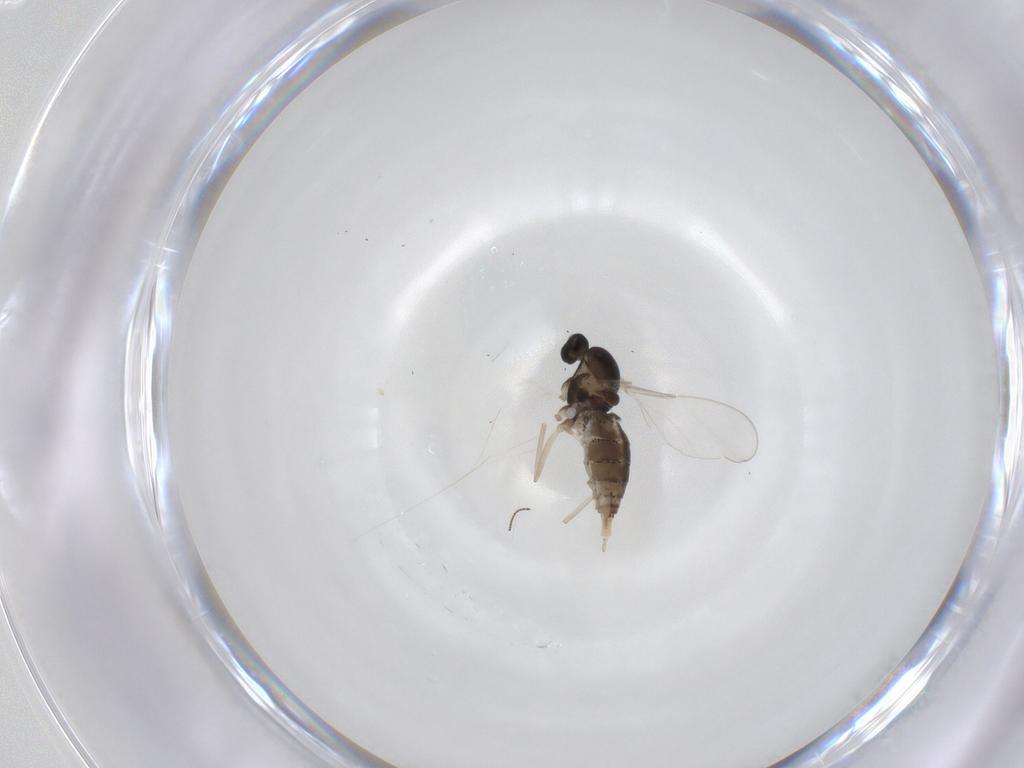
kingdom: Animalia
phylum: Arthropoda
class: Insecta
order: Diptera
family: Cecidomyiidae
